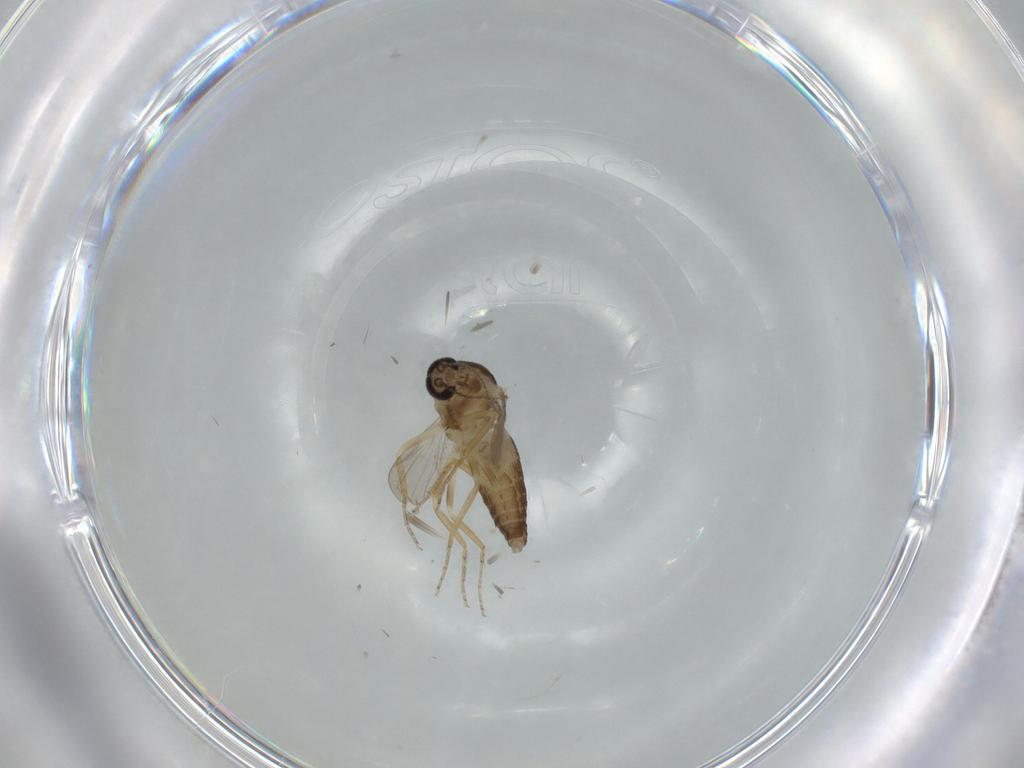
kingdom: Animalia
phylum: Arthropoda
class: Insecta
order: Diptera
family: Ceratopogonidae
